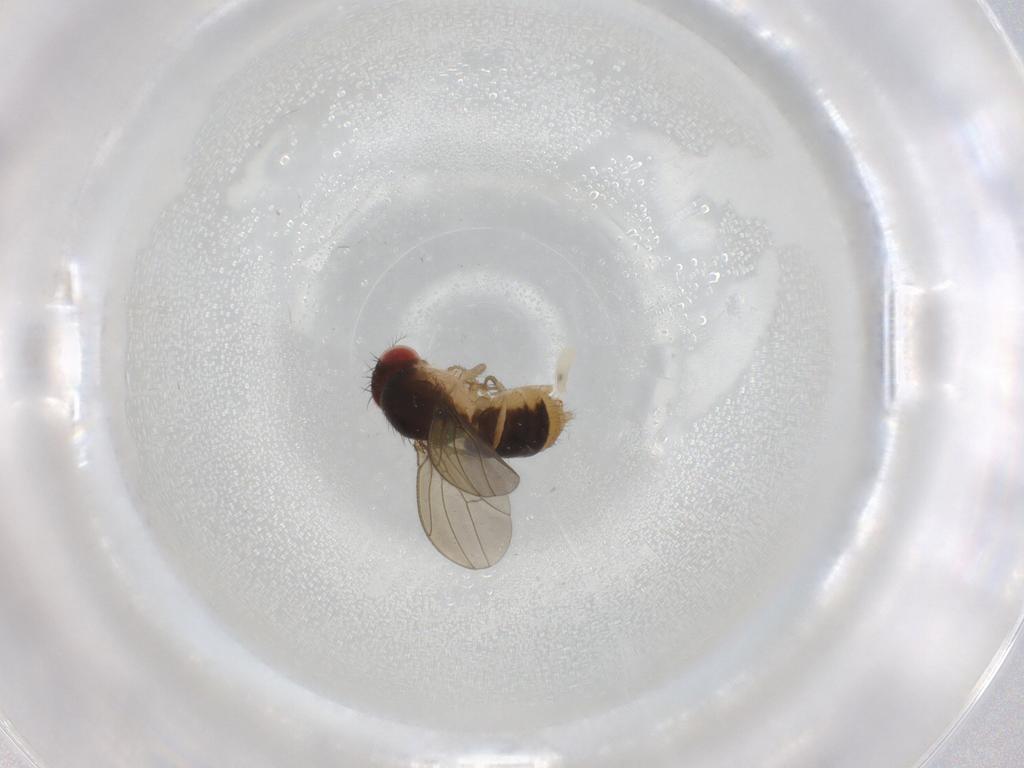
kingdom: Animalia
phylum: Arthropoda
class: Insecta
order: Diptera
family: Drosophilidae
